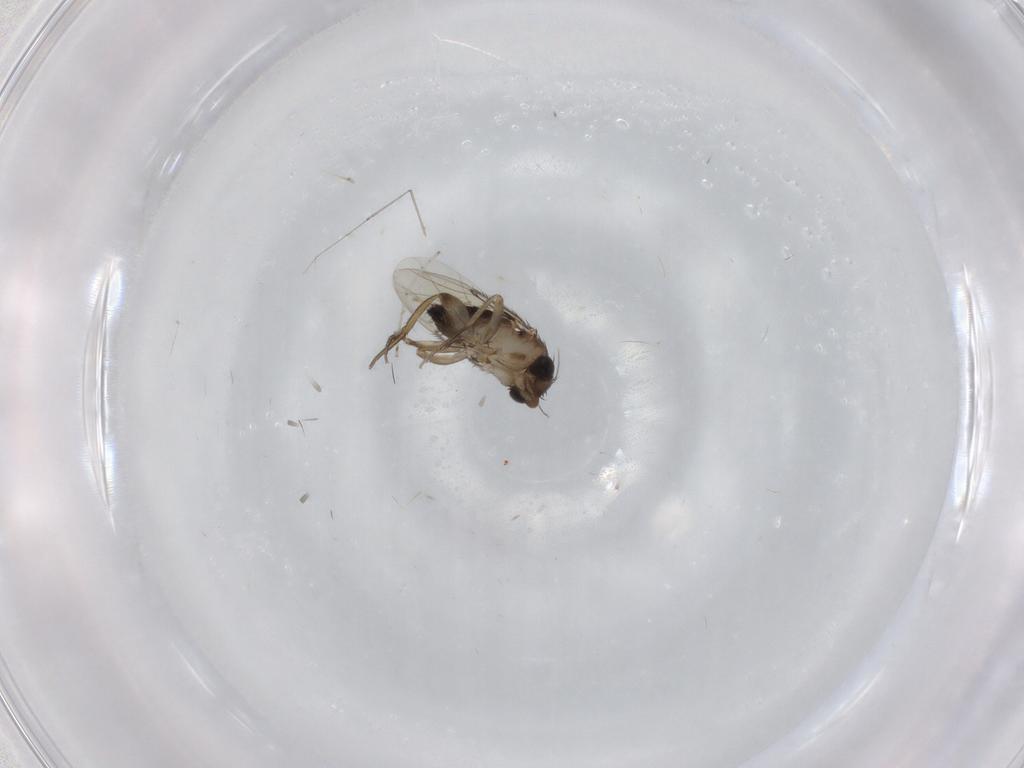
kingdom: Animalia
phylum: Arthropoda
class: Insecta
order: Diptera
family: Phoridae
